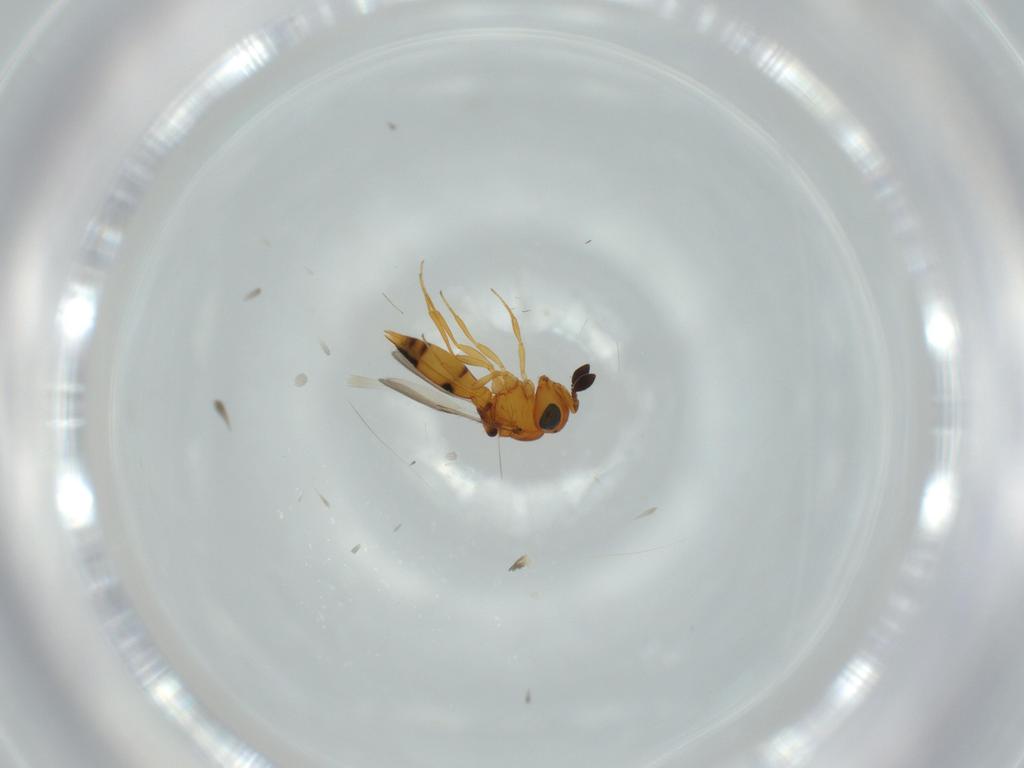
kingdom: Animalia
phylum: Arthropoda
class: Insecta
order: Hymenoptera
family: Scelionidae
